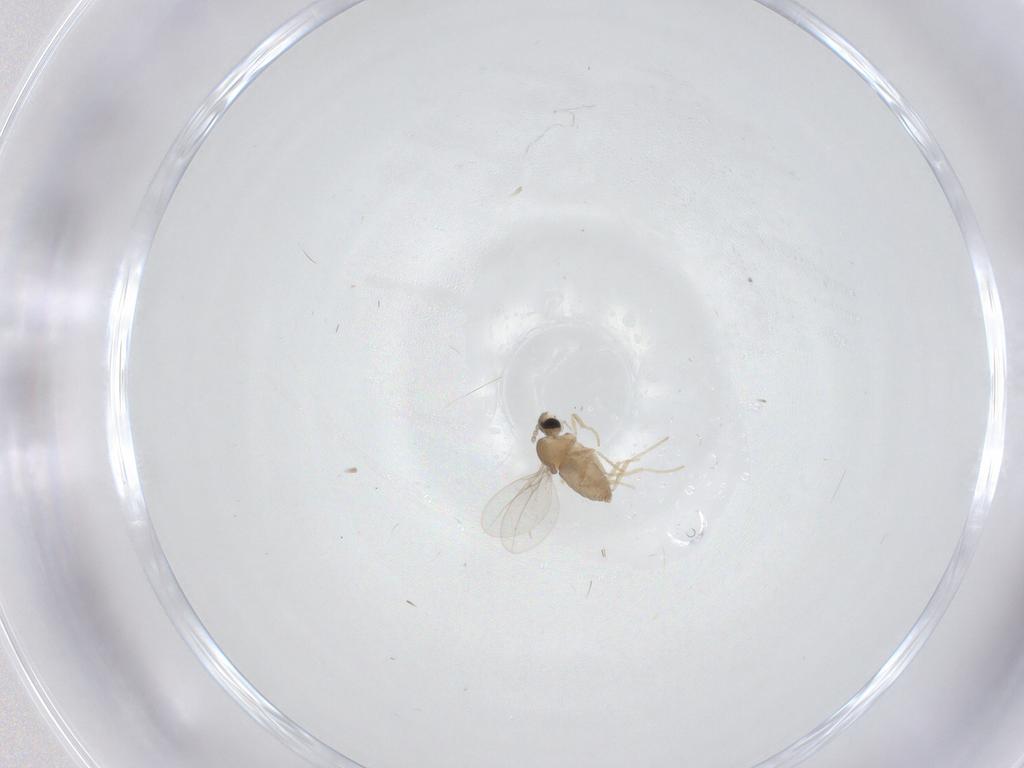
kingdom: Animalia
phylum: Arthropoda
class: Insecta
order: Diptera
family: Cecidomyiidae
